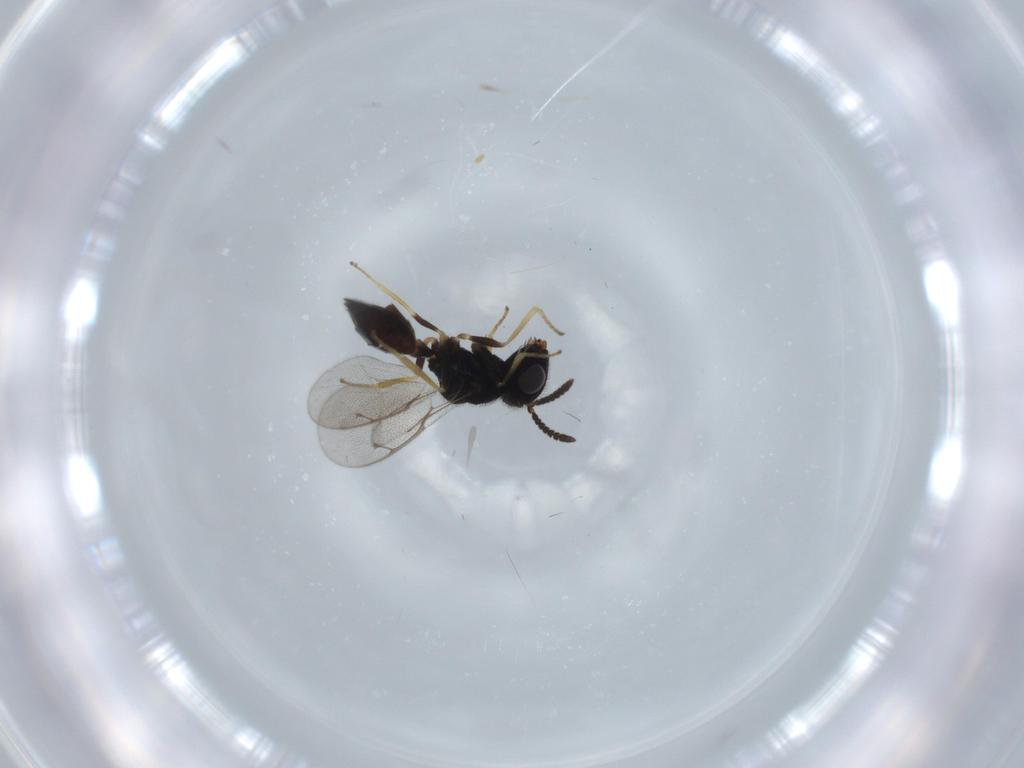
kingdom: Animalia
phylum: Arthropoda
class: Insecta
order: Hymenoptera
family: Pteromalidae
